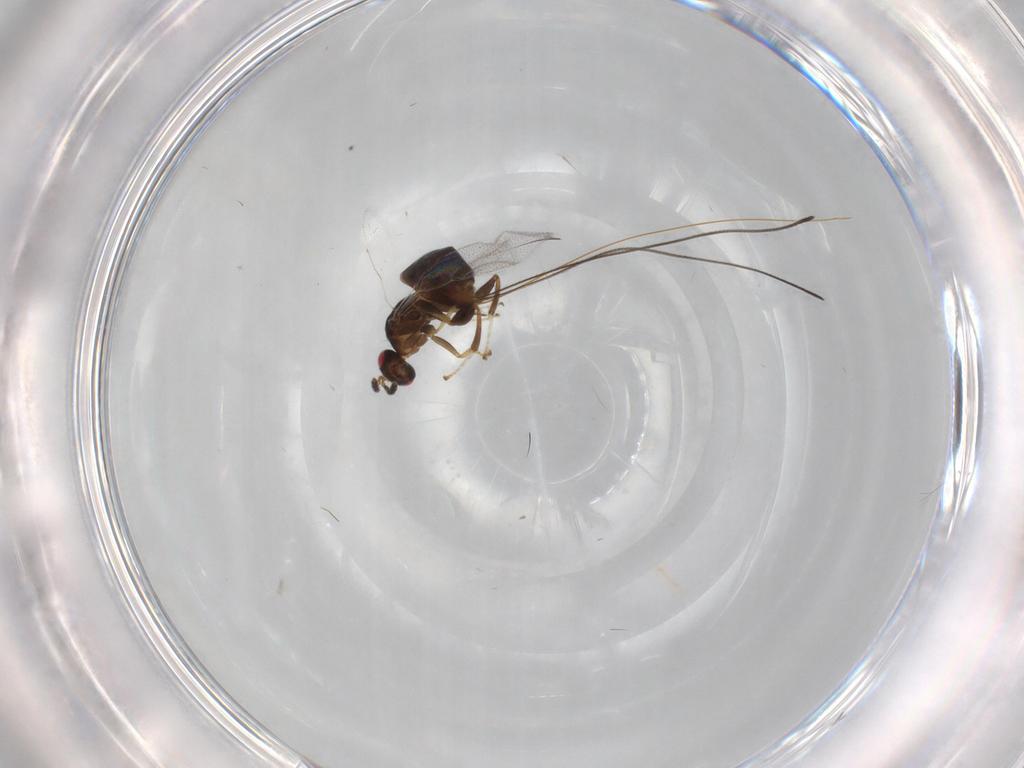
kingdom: Animalia
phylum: Arthropoda
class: Insecta
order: Hymenoptera
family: Torymidae
